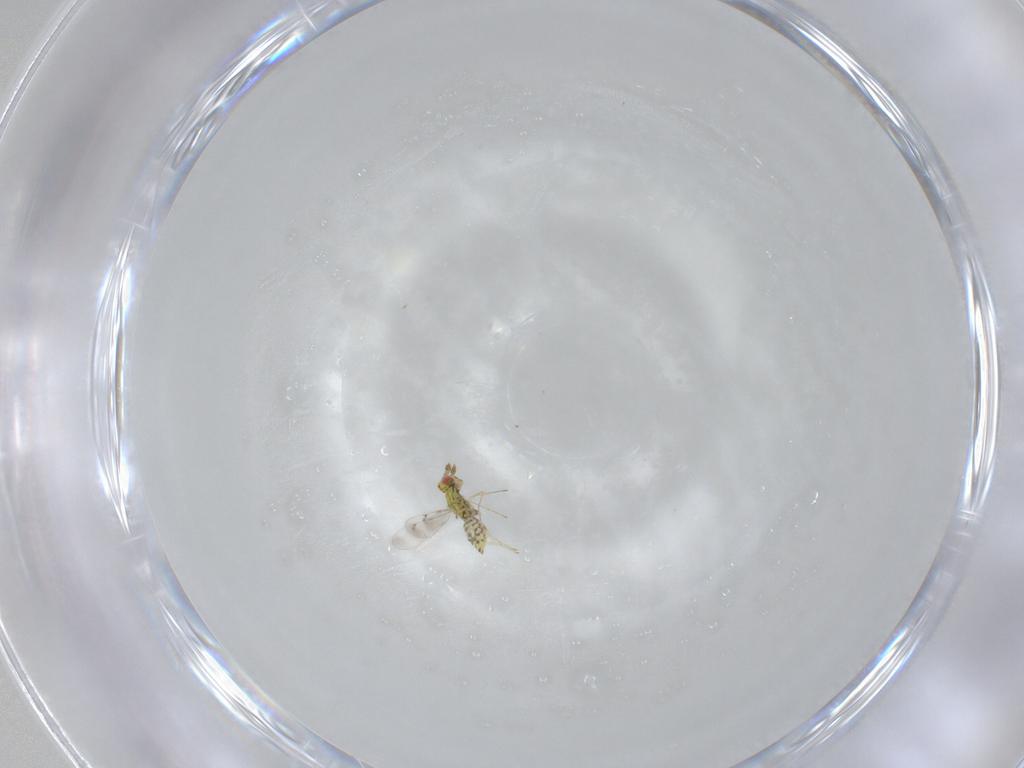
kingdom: Animalia
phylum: Arthropoda
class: Insecta
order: Hymenoptera
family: Eulophidae
